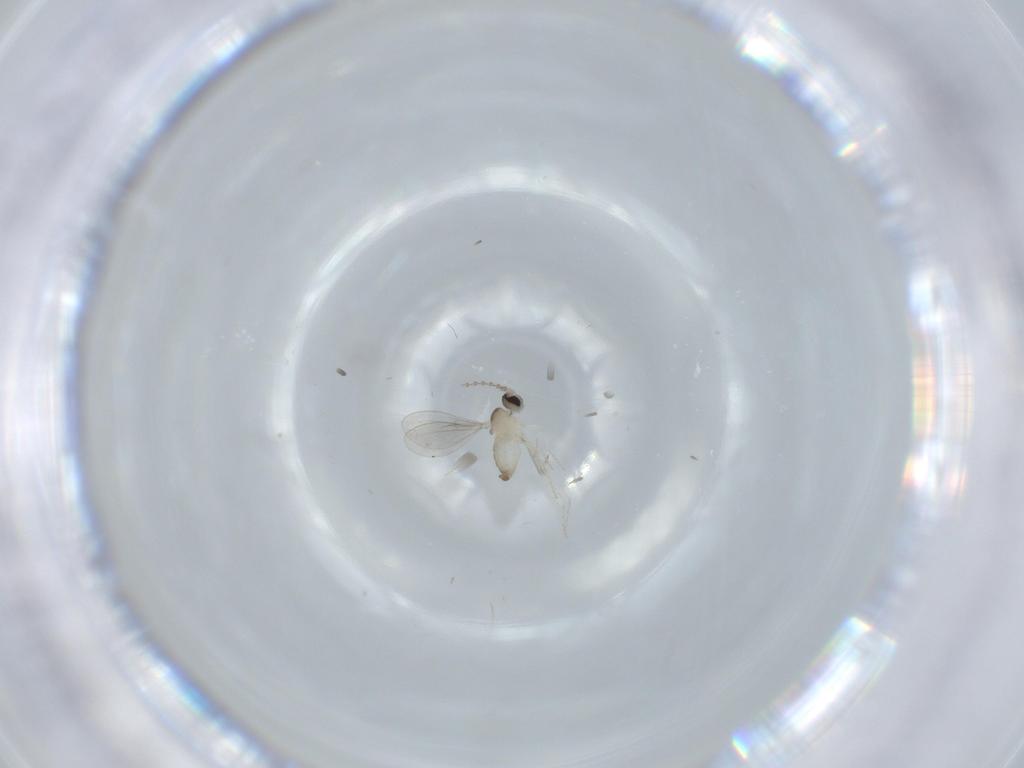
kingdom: Animalia
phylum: Arthropoda
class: Insecta
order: Diptera
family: Cecidomyiidae
